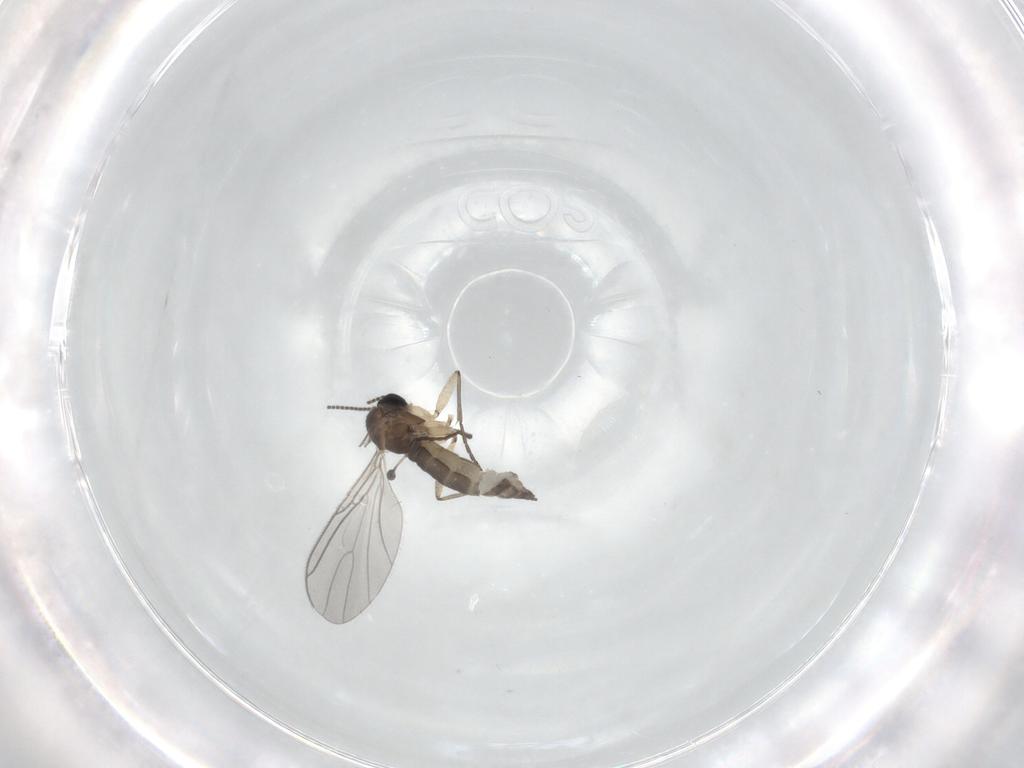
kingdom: Animalia
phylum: Arthropoda
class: Insecta
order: Diptera
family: Sciaridae
